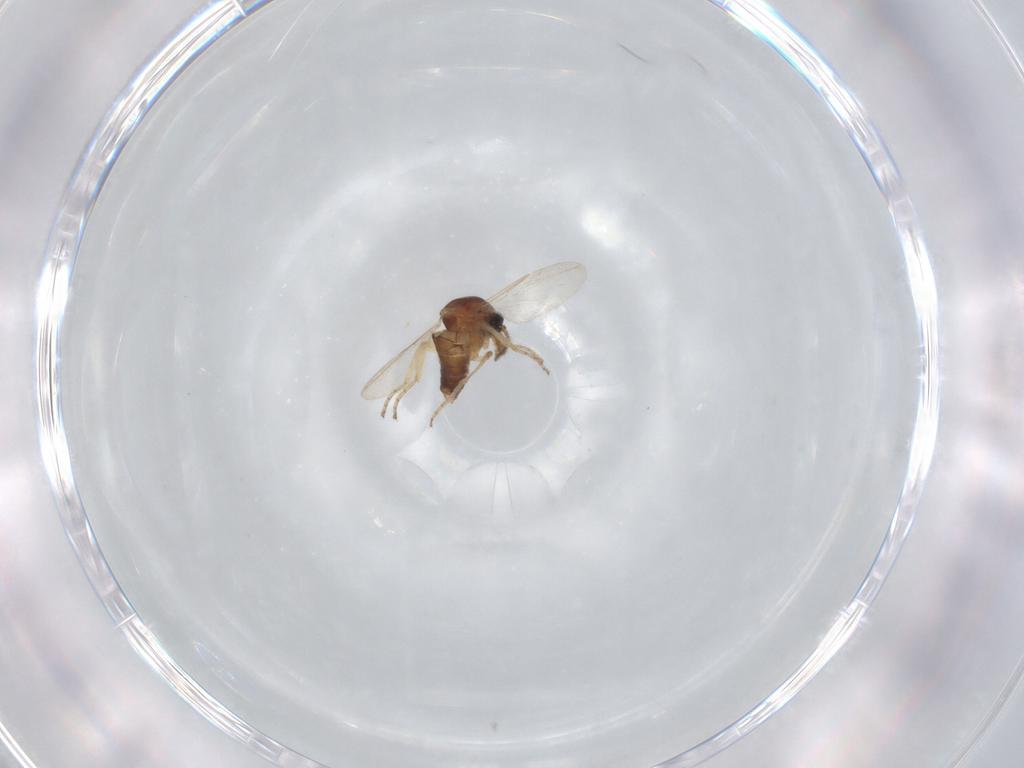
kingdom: Animalia
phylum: Arthropoda
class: Insecta
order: Diptera
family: Ceratopogonidae
